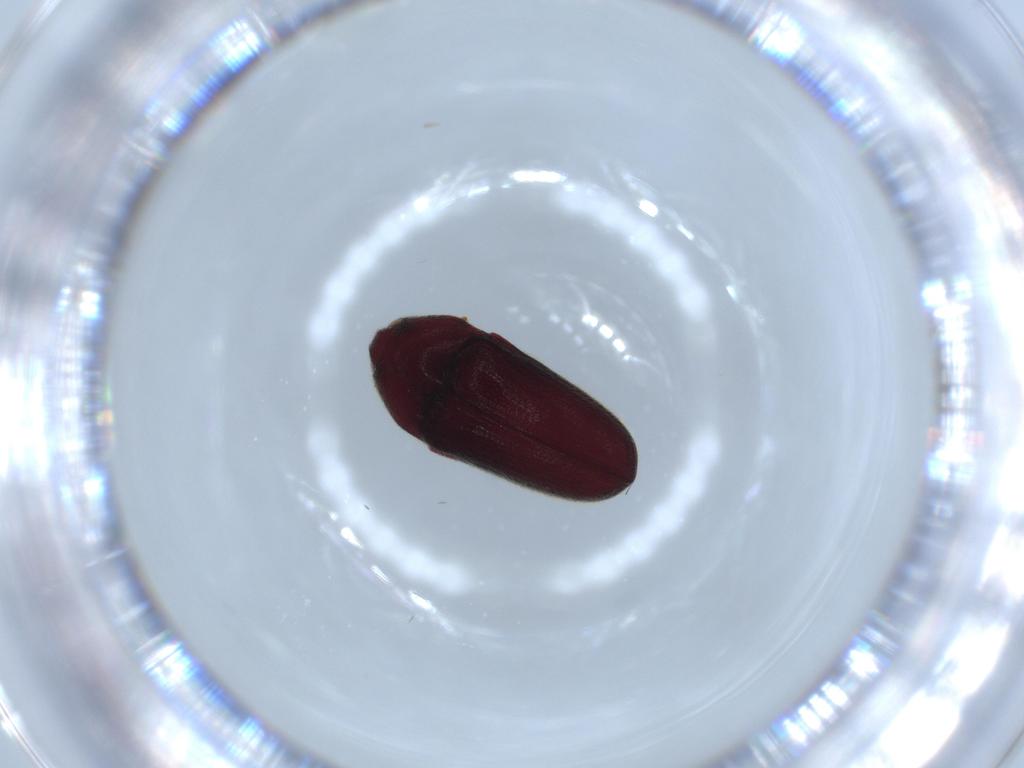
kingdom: Animalia
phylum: Arthropoda
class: Insecta
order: Coleoptera
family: Throscidae
